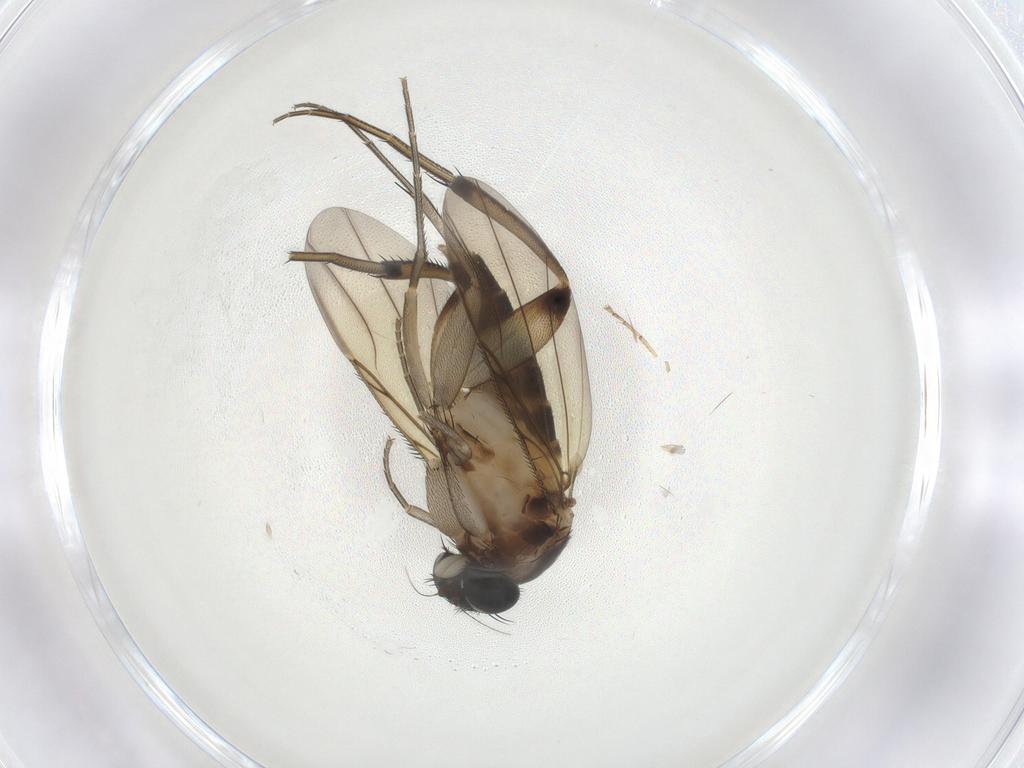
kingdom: Animalia
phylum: Arthropoda
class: Insecta
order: Diptera
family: Phoridae
